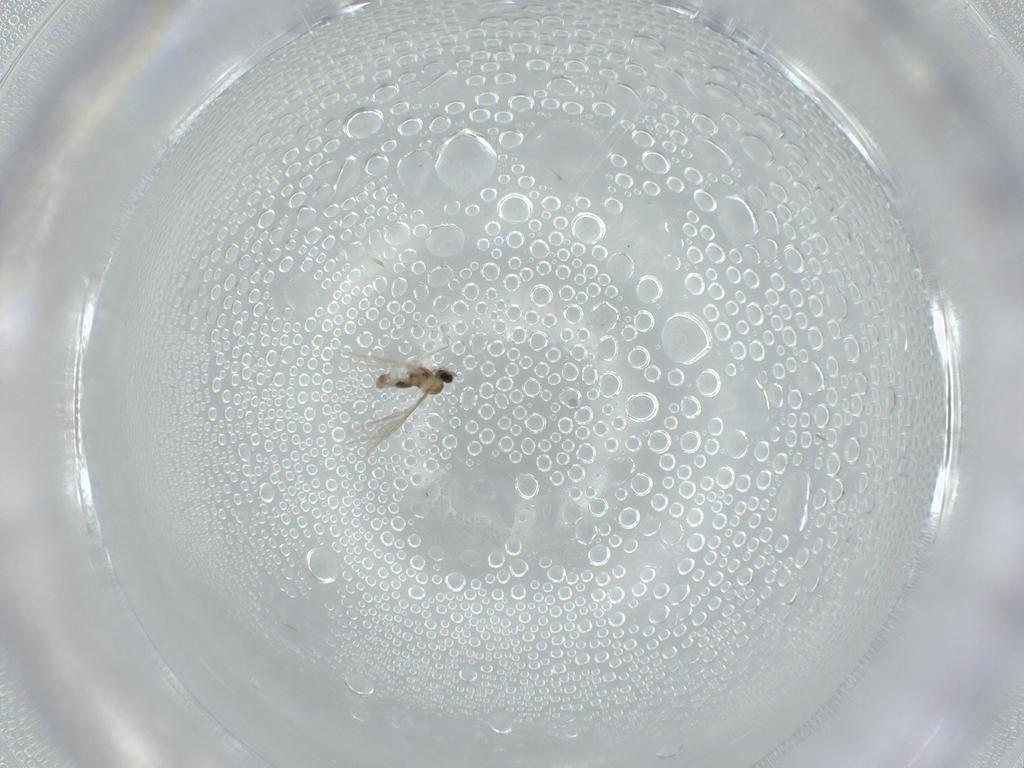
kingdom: Animalia
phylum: Arthropoda
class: Insecta
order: Diptera
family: Cecidomyiidae
